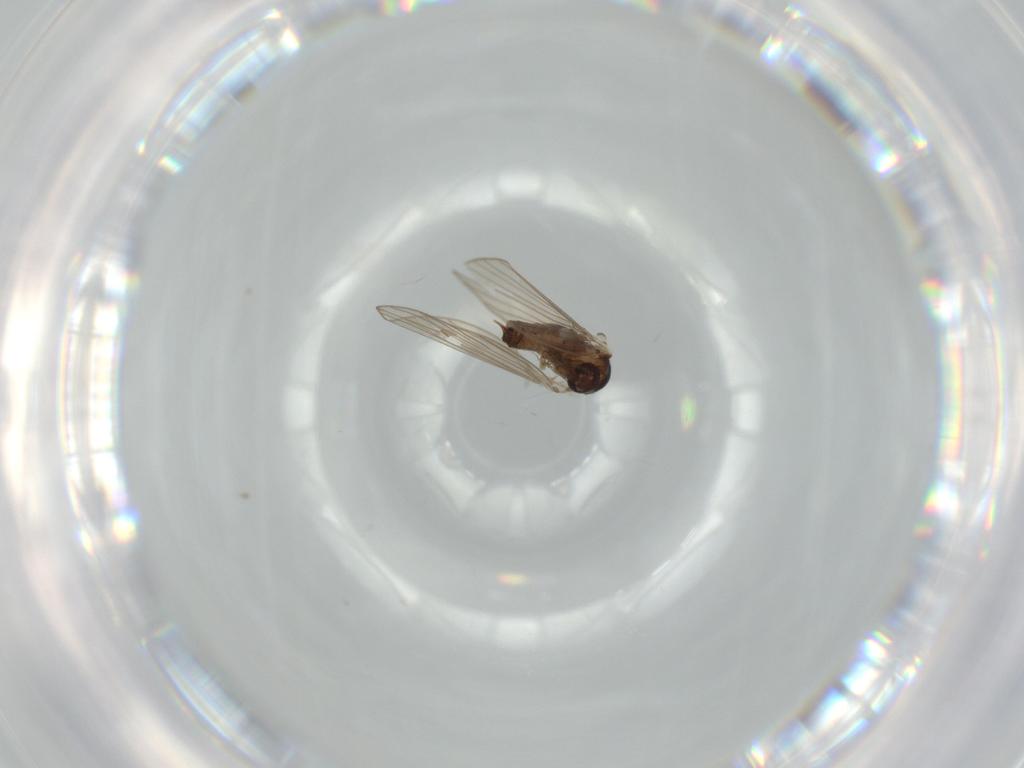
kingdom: Animalia
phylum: Arthropoda
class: Insecta
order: Diptera
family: Psychodidae
